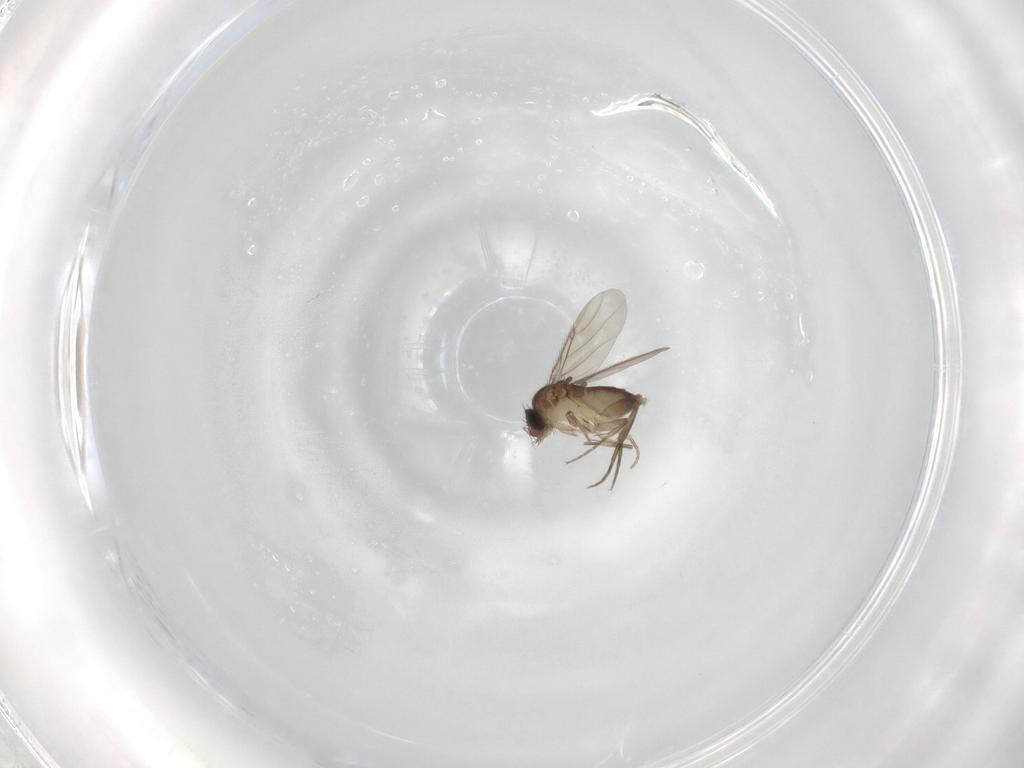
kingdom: Animalia
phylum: Arthropoda
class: Insecta
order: Diptera
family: Phoridae
